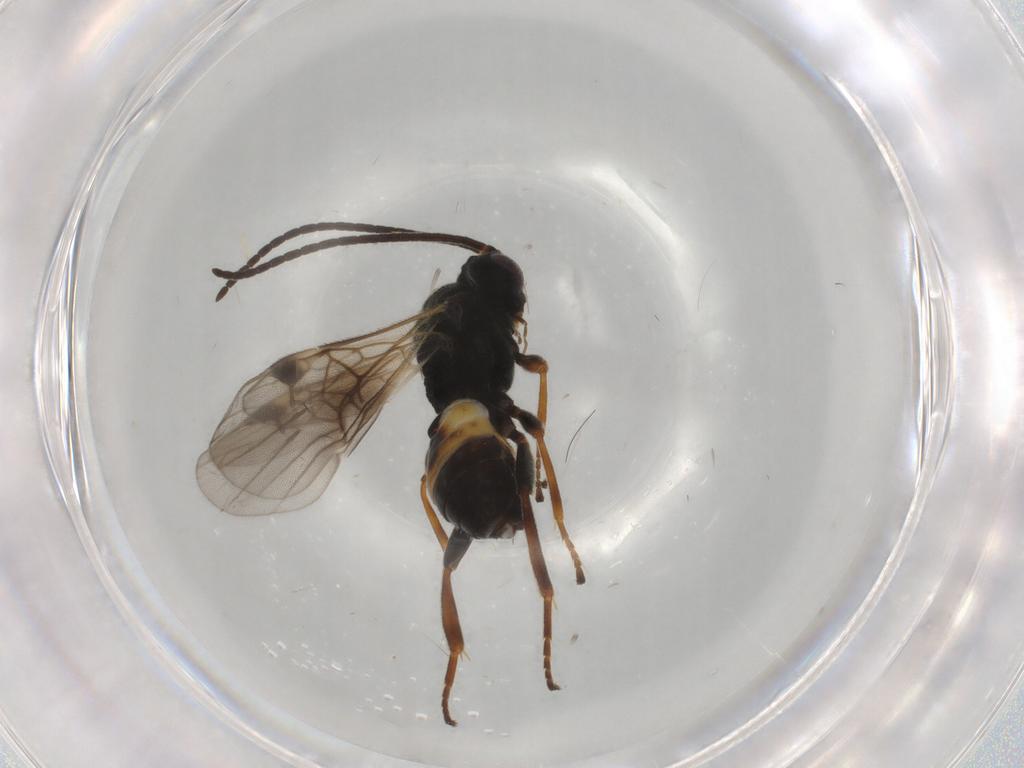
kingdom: Animalia
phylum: Arthropoda
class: Insecta
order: Hymenoptera
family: Braconidae
